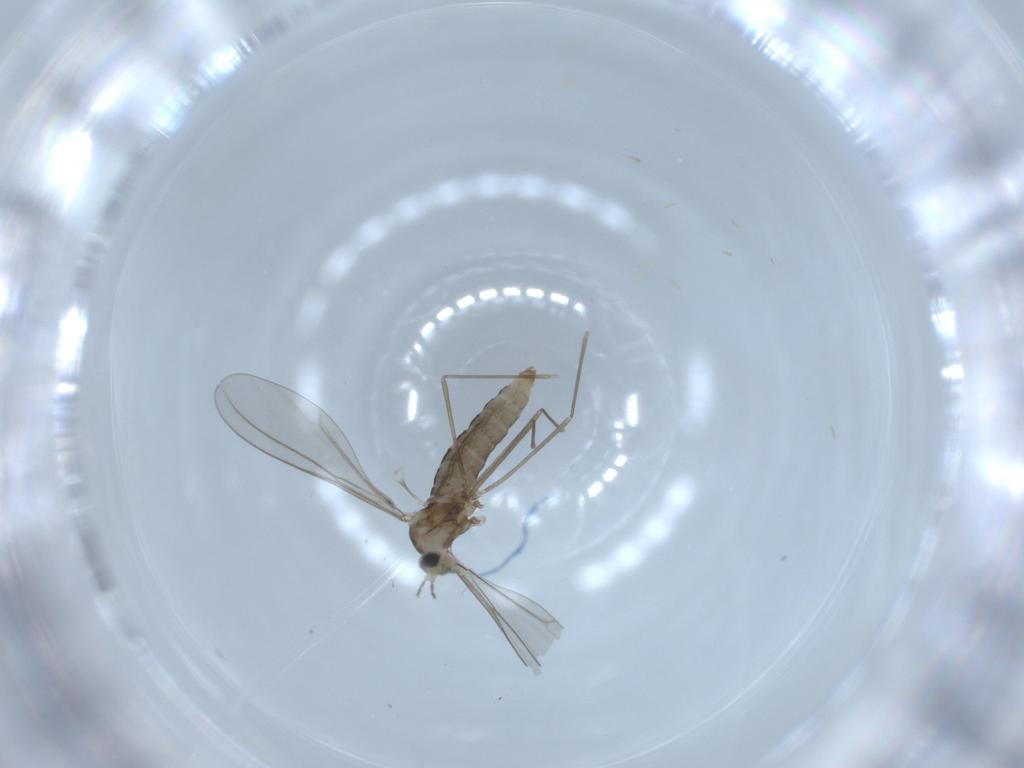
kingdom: Animalia
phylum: Arthropoda
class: Insecta
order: Diptera
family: Cecidomyiidae
